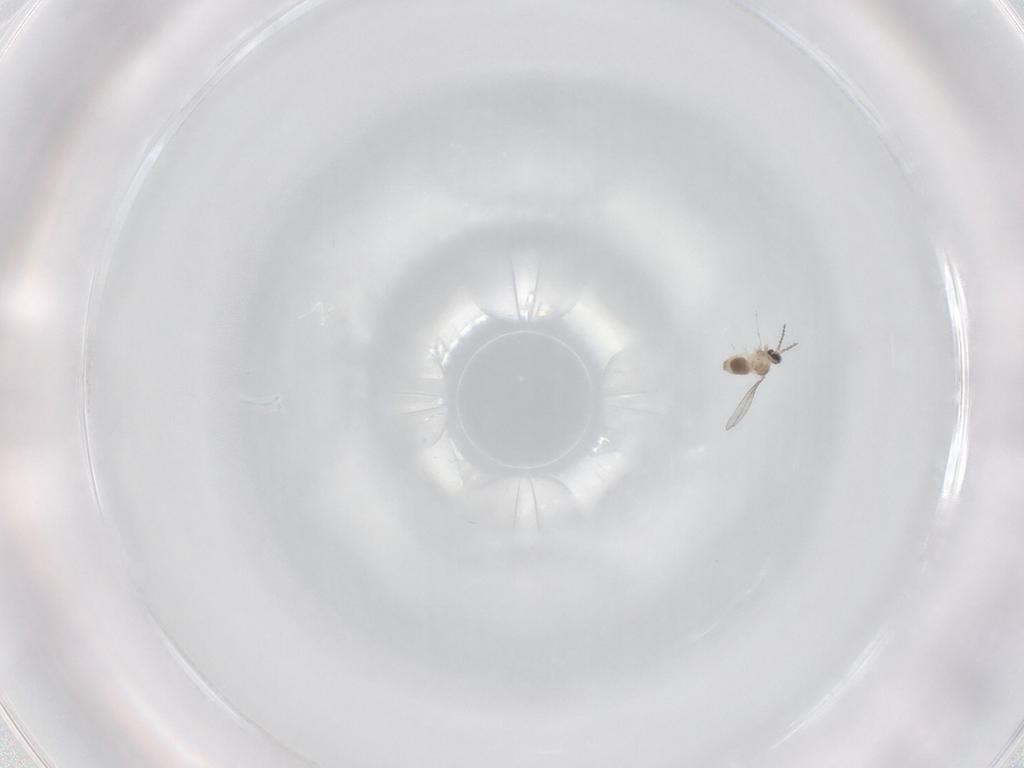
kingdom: Animalia
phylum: Arthropoda
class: Insecta
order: Diptera
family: Cecidomyiidae
